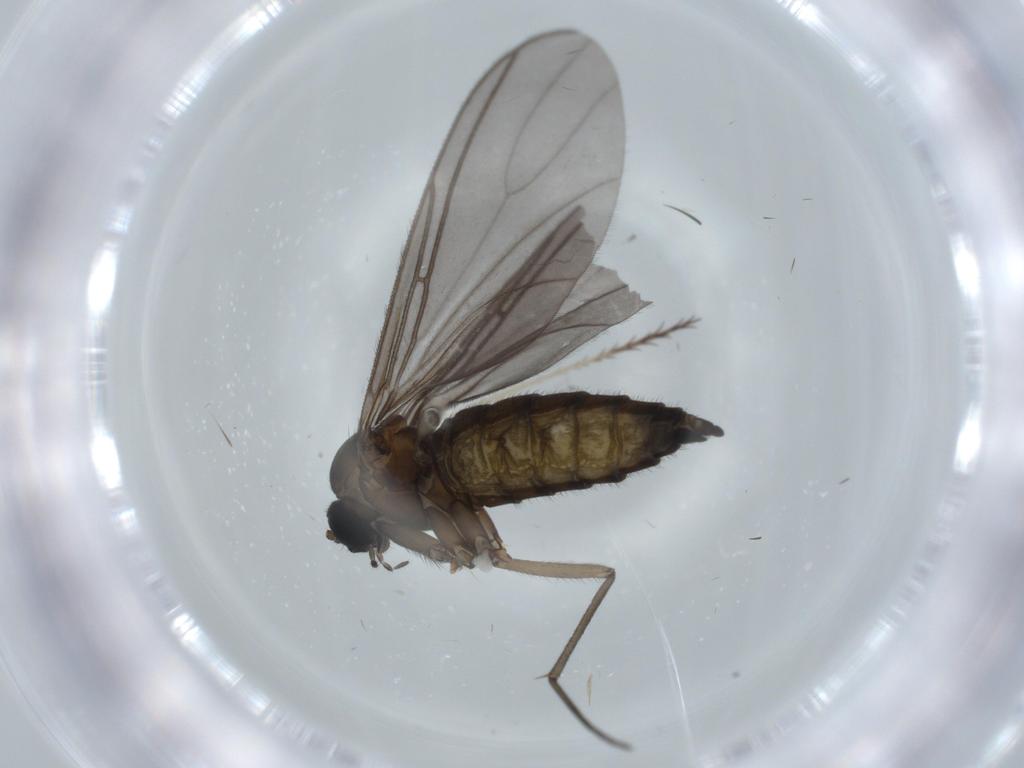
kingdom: Animalia
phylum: Arthropoda
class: Insecta
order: Diptera
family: Sciaridae
